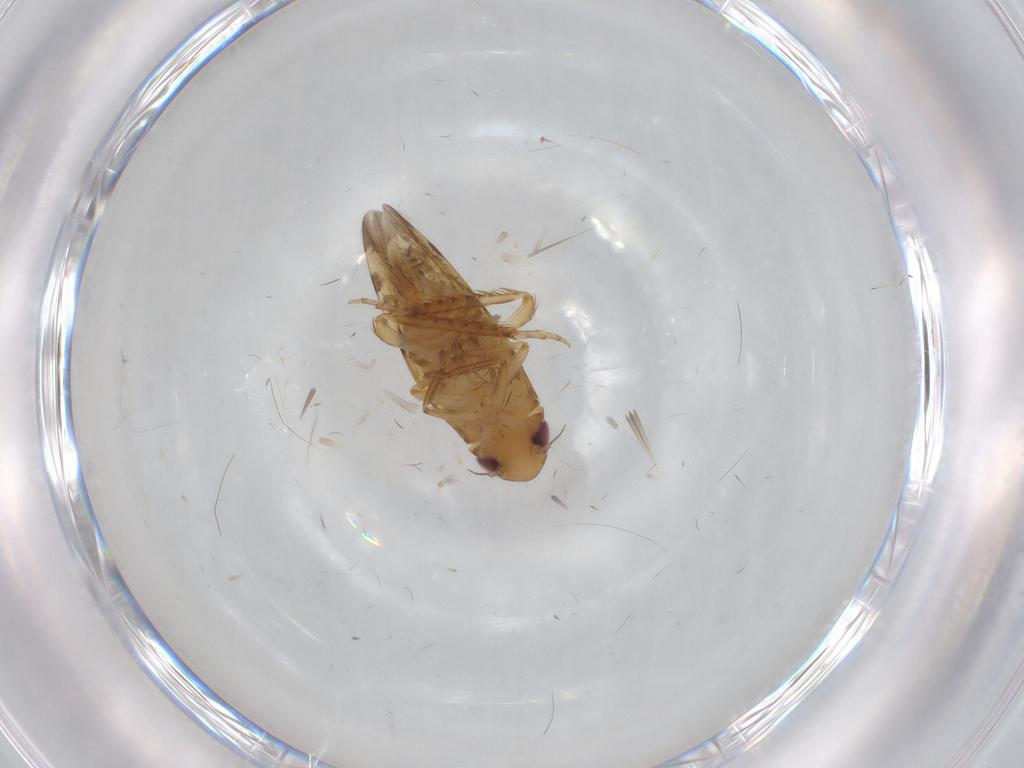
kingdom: Animalia
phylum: Arthropoda
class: Insecta
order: Hemiptera
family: Cicadellidae
